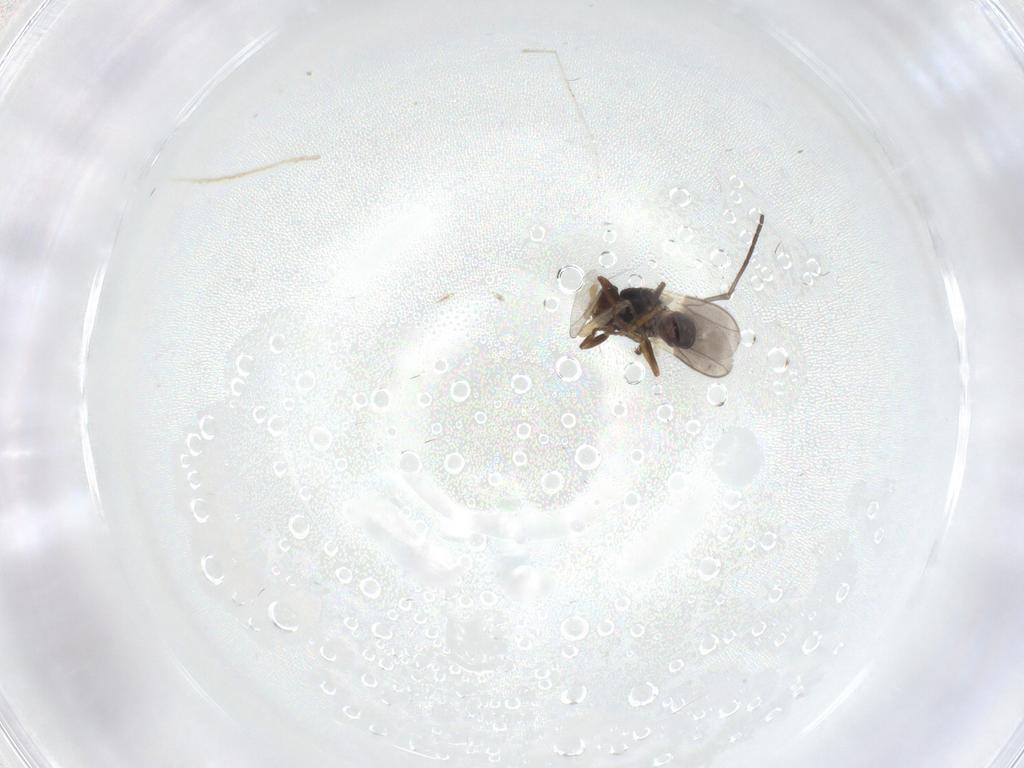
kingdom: Animalia
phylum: Arthropoda
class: Insecta
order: Diptera
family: Sphaeroceridae
